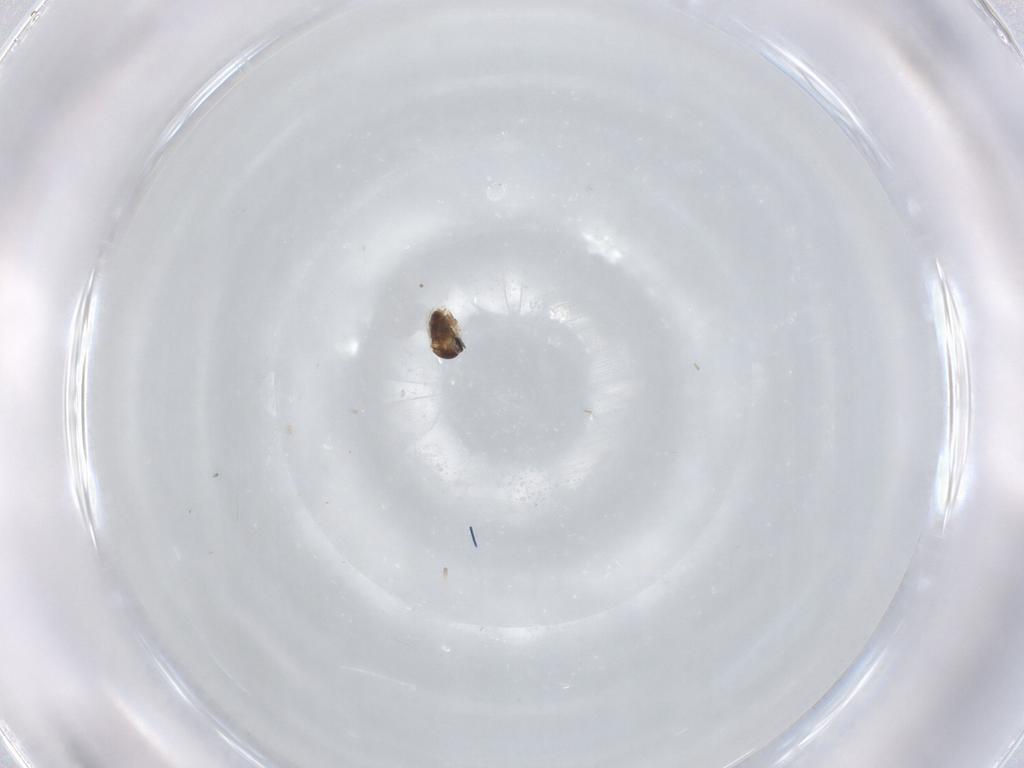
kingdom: Animalia
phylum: Arthropoda
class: Insecta
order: Diptera
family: Cecidomyiidae
